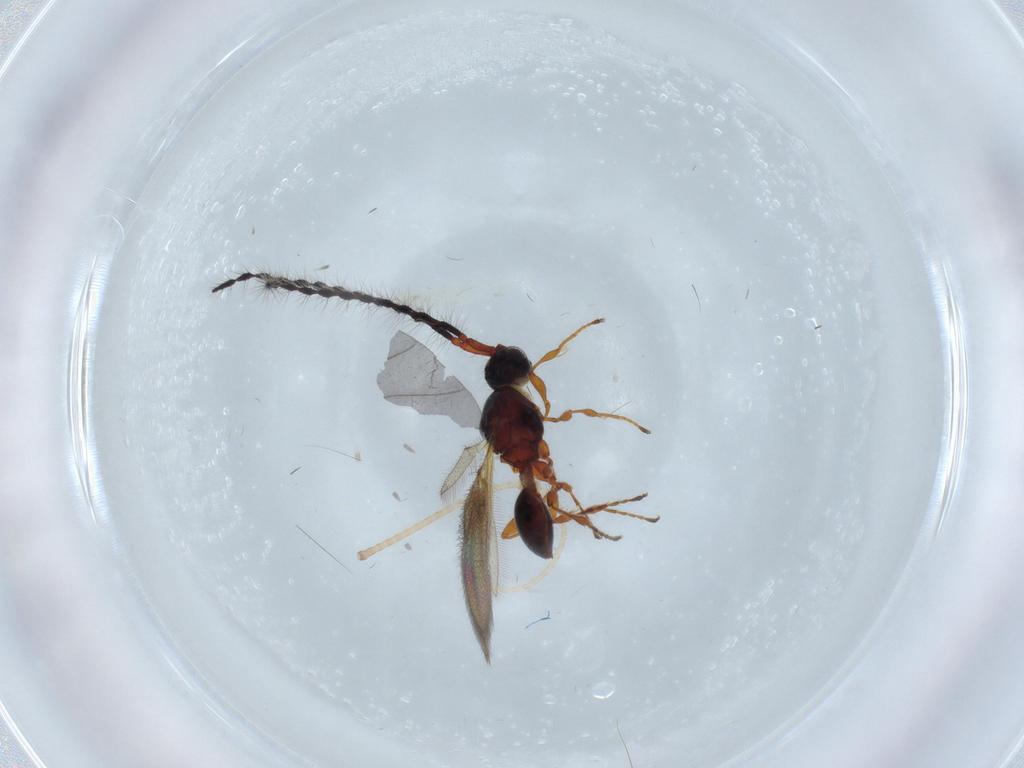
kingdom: Animalia
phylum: Arthropoda
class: Insecta
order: Hymenoptera
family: Diapriidae
